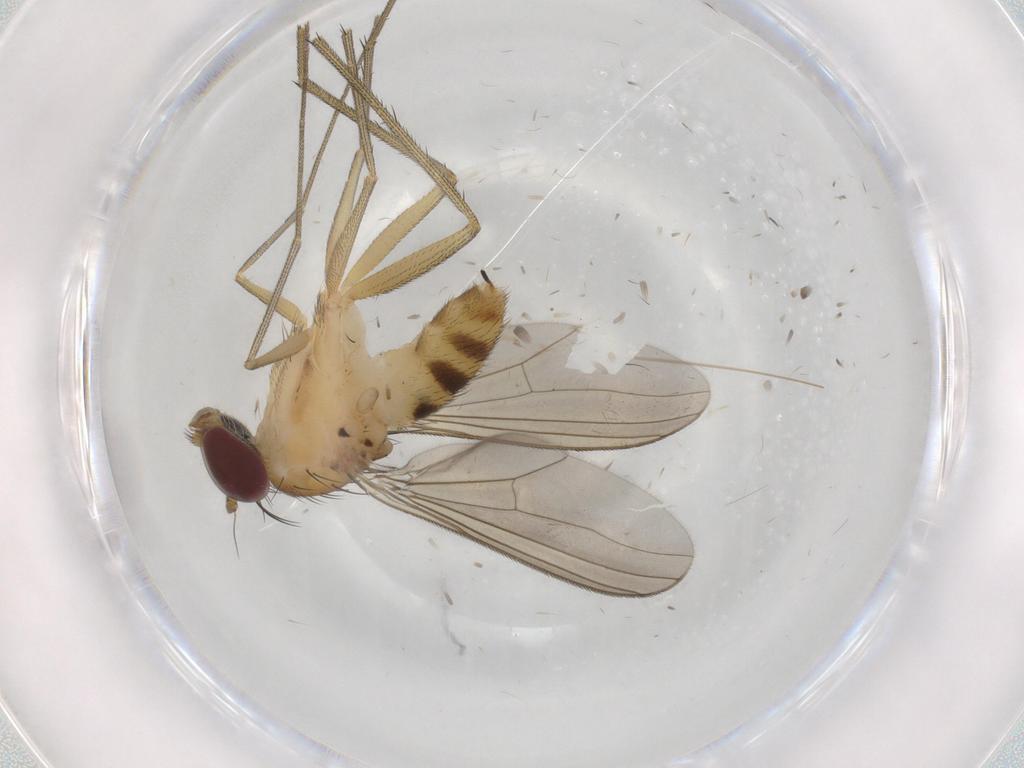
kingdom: Animalia
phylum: Arthropoda
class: Insecta
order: Diptera
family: Dolichopodidae
